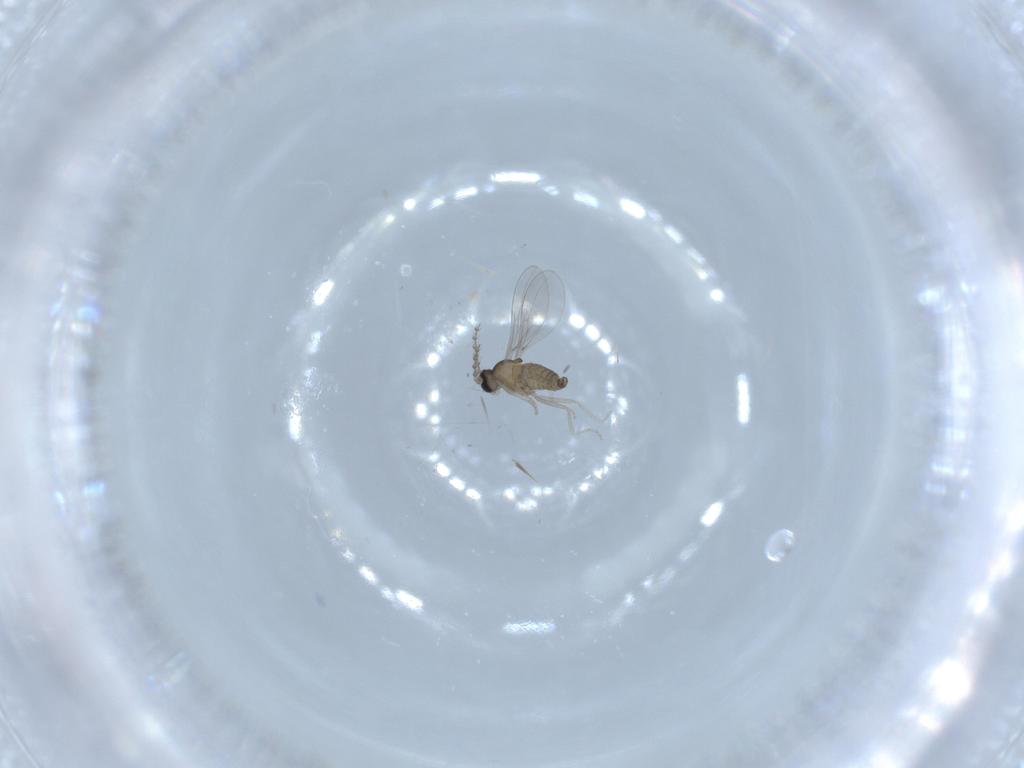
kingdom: Animalia
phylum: Arthropoda
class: Insecta
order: Diptera
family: Cecidomyiidae
